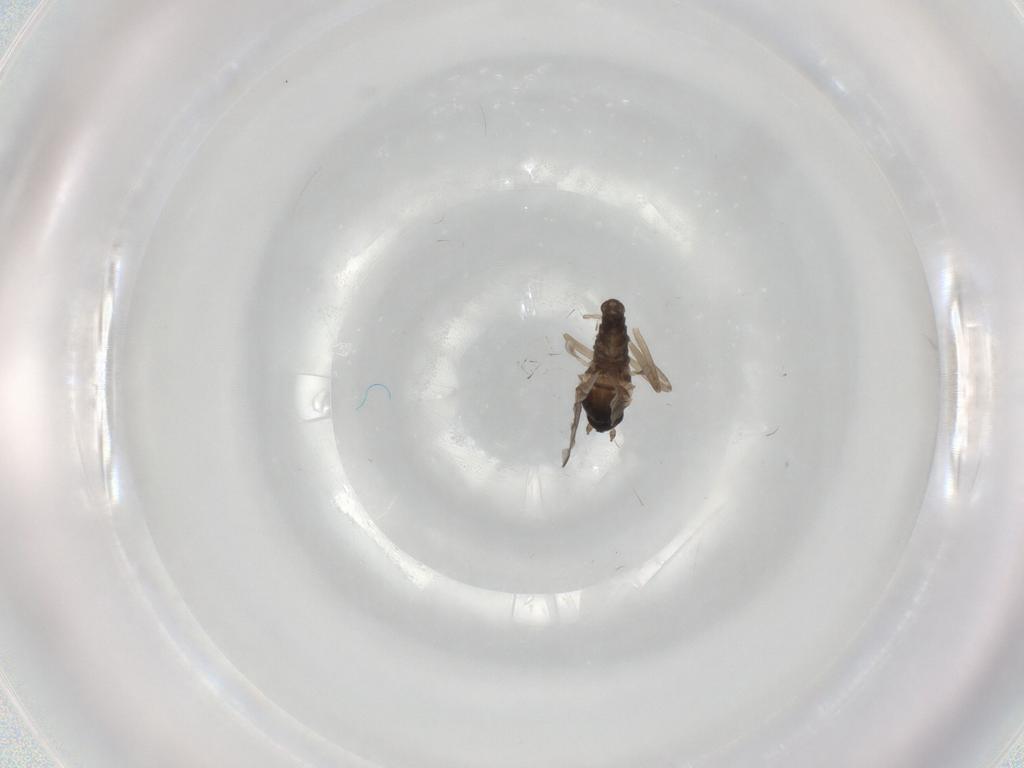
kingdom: Animalia
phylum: Arthropoda
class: Insecta
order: Diptera
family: Cecidomyiidae
